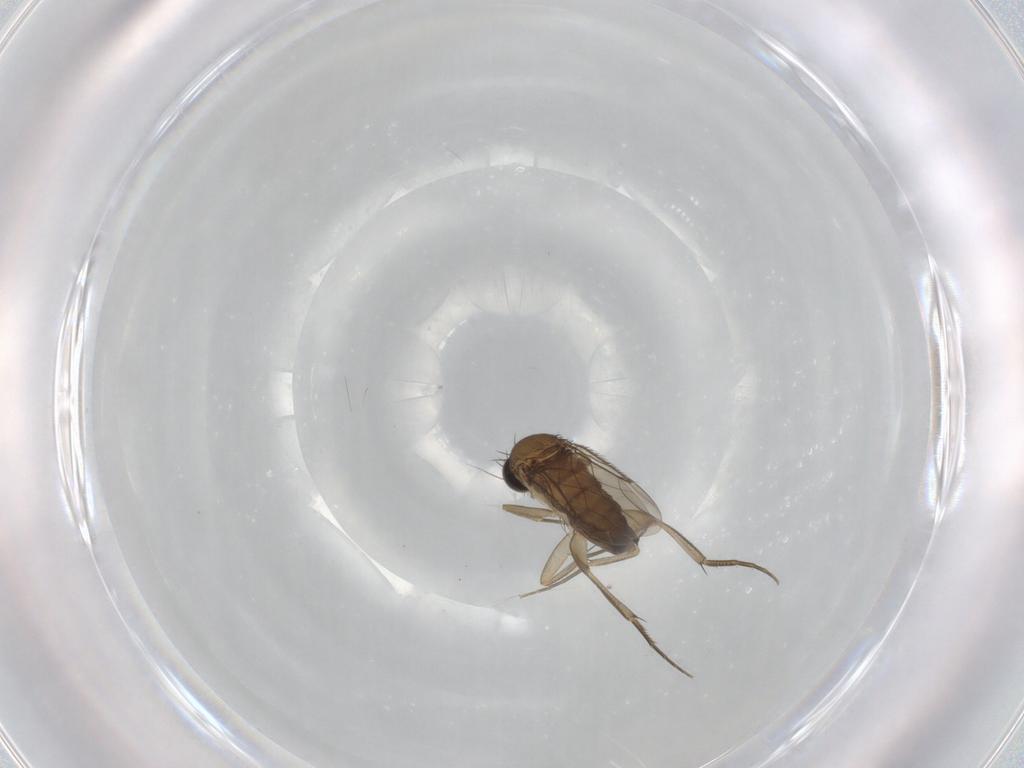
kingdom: Animalia
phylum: Arthropoda
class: Insecta
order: Diptera
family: Phoridae
